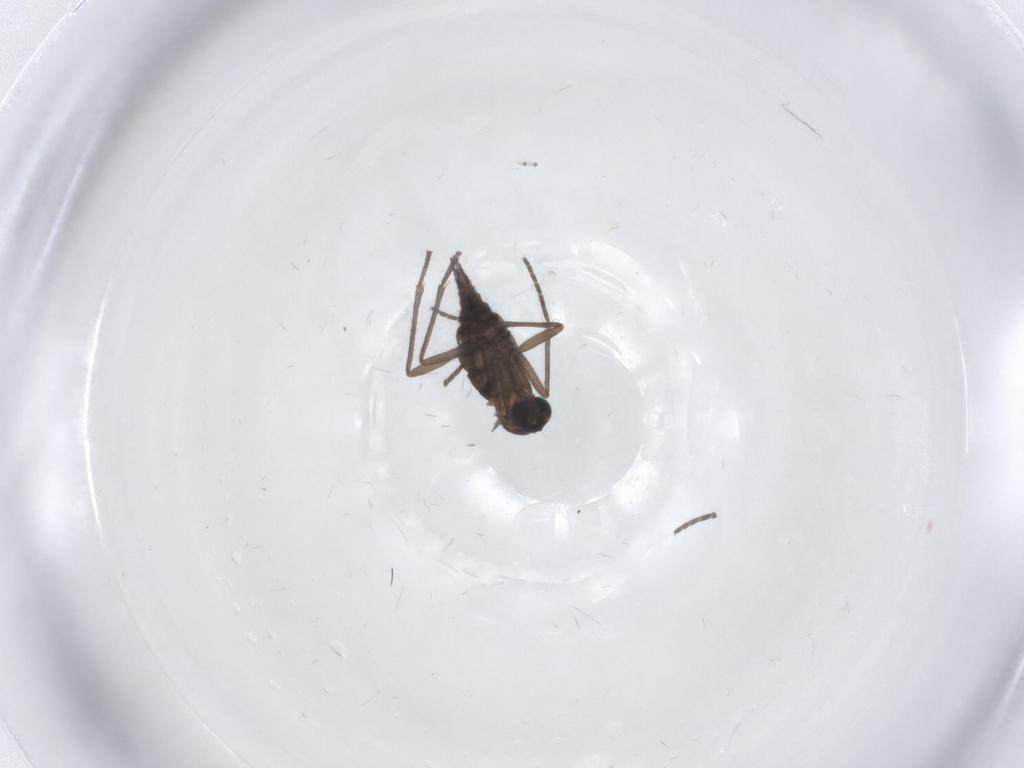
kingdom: Animalia
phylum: Arthropoda
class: Insecta
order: Diptera
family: Sciaridae
